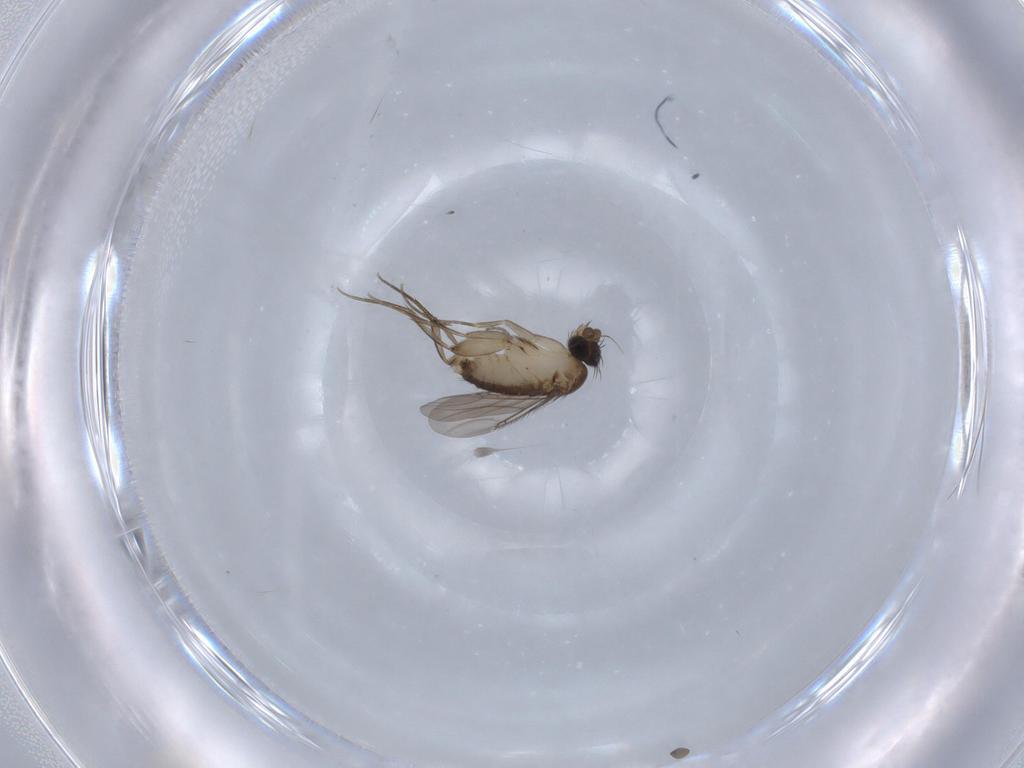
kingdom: Animalia
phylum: Arthropoda
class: Insecta
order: Diptera
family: Phoridae
